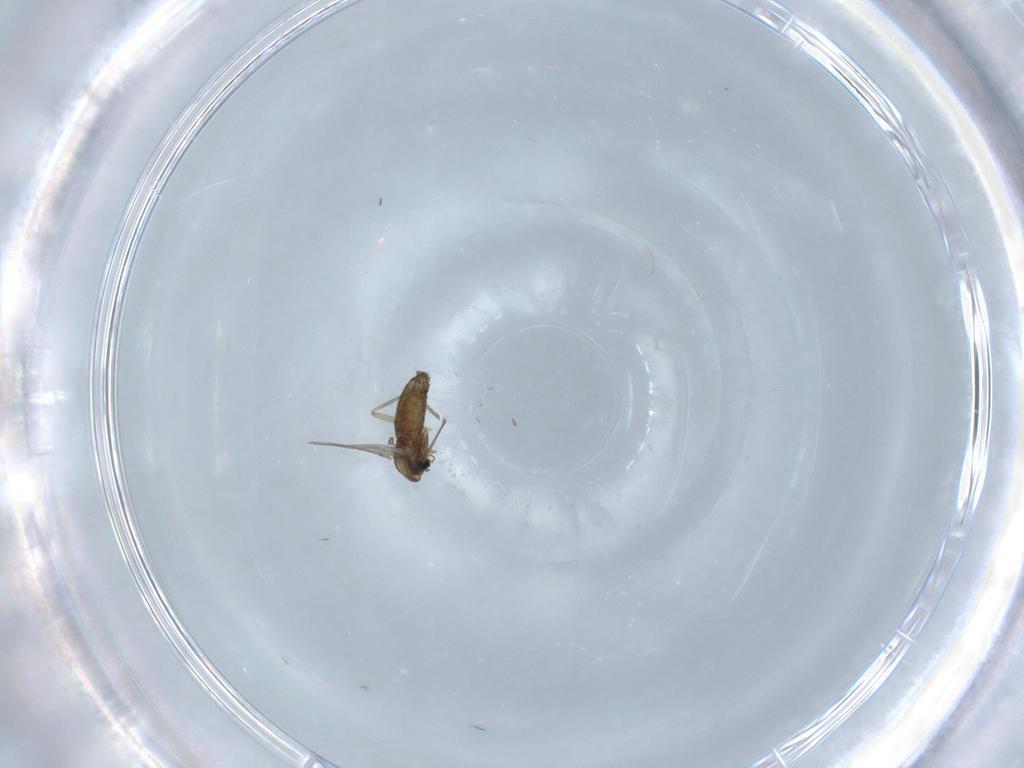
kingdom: Animalia
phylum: Arthropoda
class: Insecta
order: Diptera
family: Chironomidae
